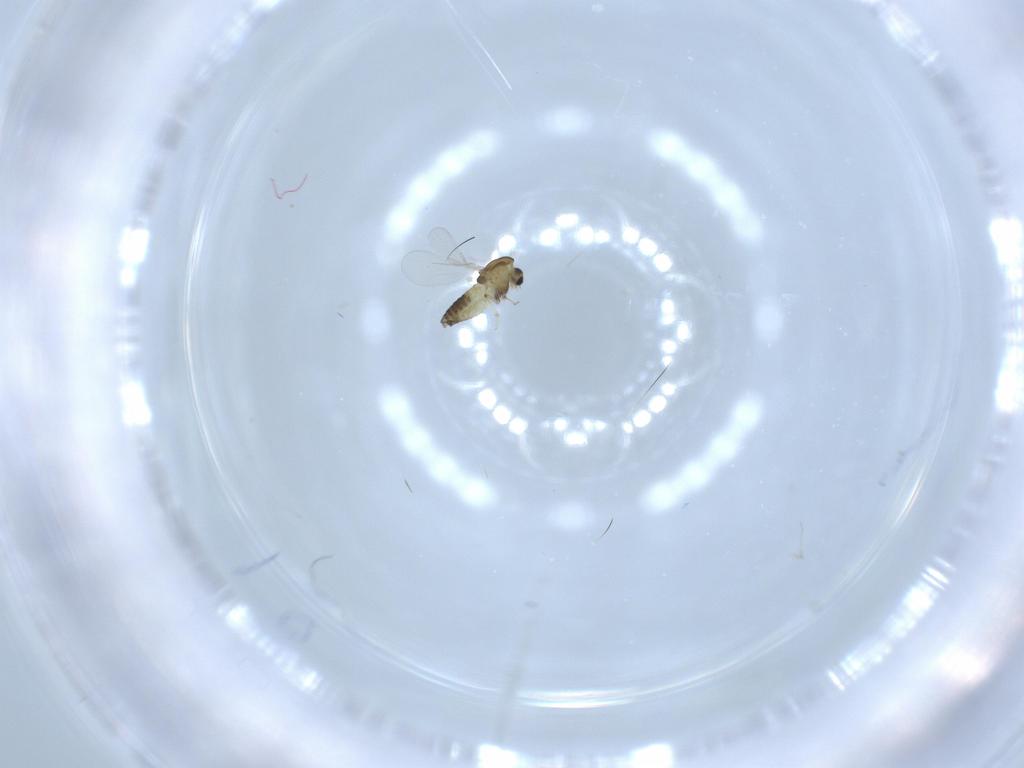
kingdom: Animalia
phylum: Arthropoda
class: Insecta
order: Diptera
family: Chironomidae
